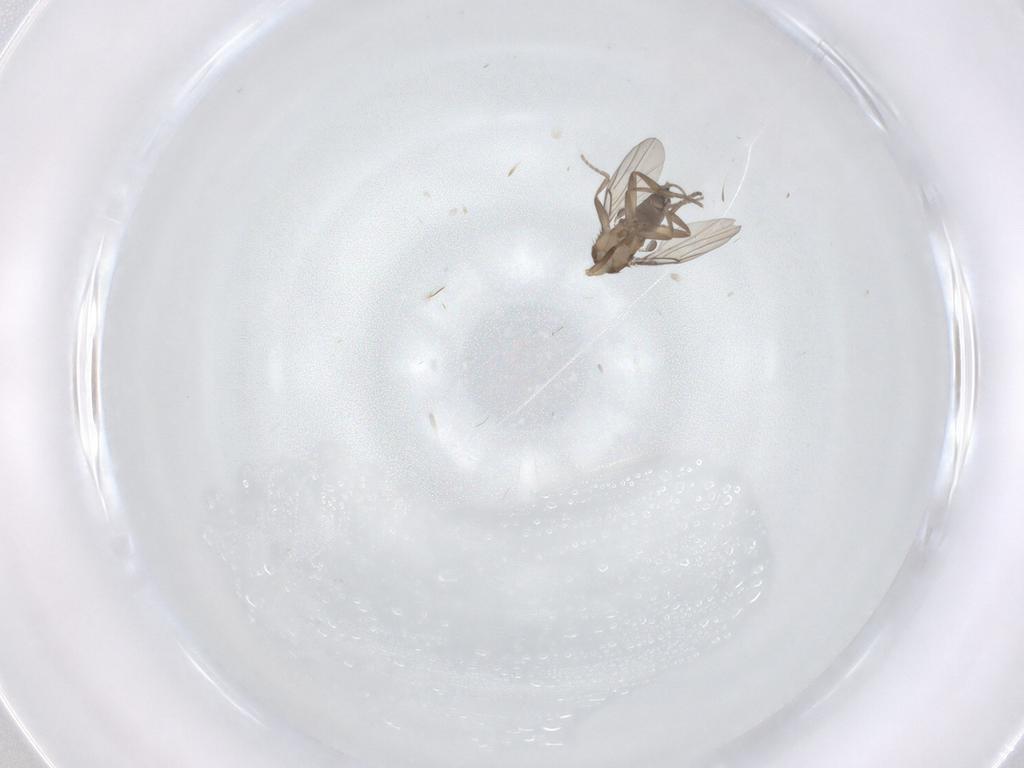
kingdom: Animalia
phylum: Arthropoda
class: Insecta
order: Diptera
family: Phoridae
